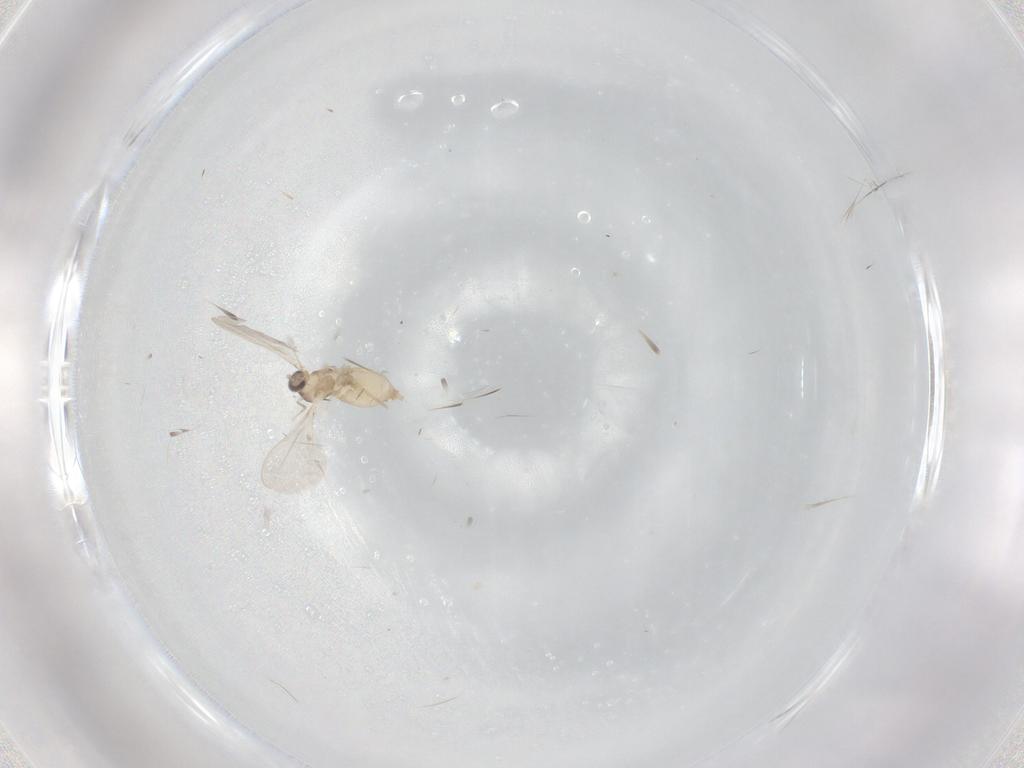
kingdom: Animalia
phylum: Arthropoda
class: Insecta
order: Diptera
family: Cecidomyiidae
